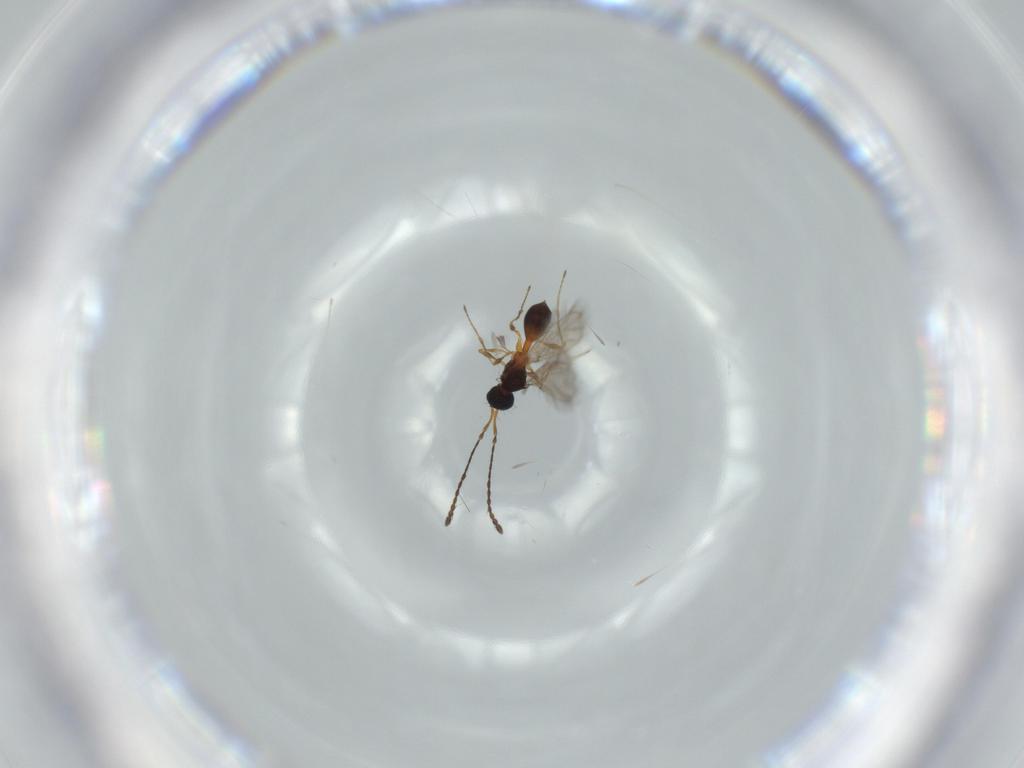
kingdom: Animalia
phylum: Arthropoda
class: Insecta
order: Hymenoptera
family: Diapriidae
